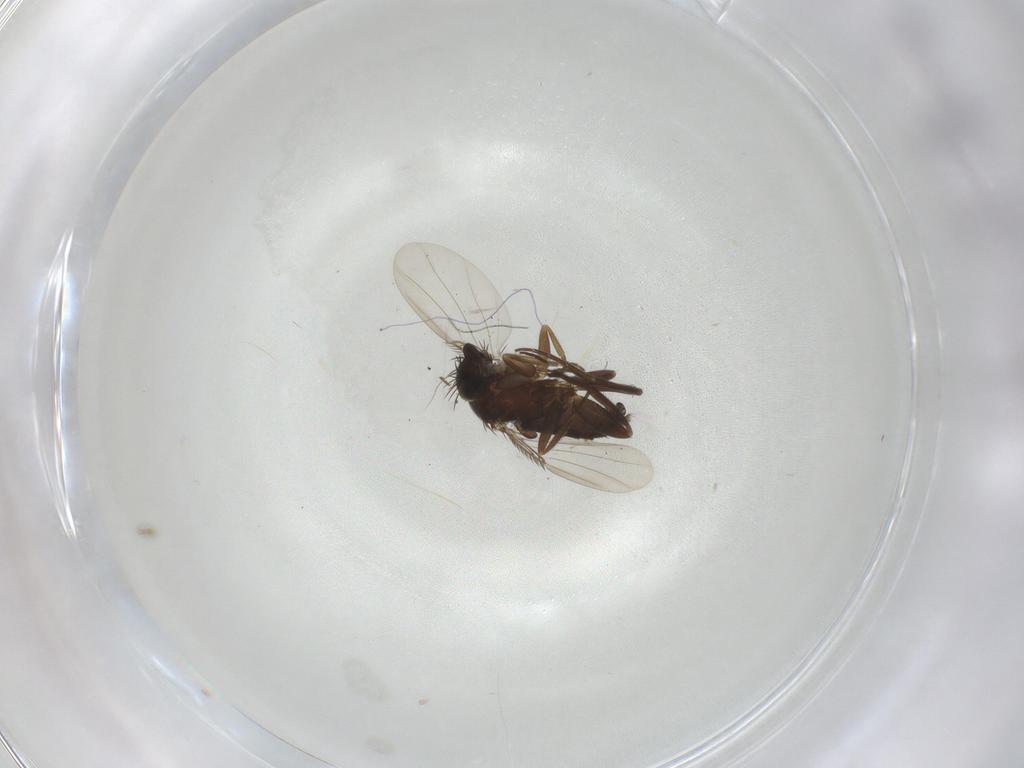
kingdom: Animalia
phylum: Arthropoda
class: Insecta
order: Diptera
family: Phoridae
